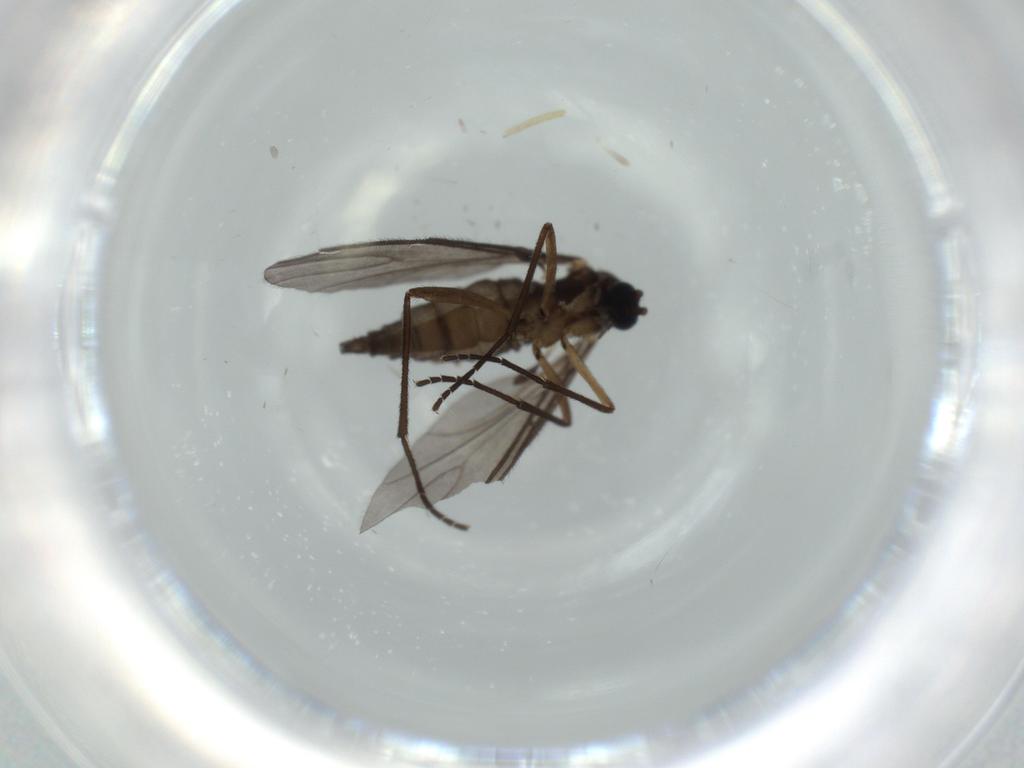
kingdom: Animalia
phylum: Arthropoda
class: Insecta
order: Diptera
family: Sciaridae
